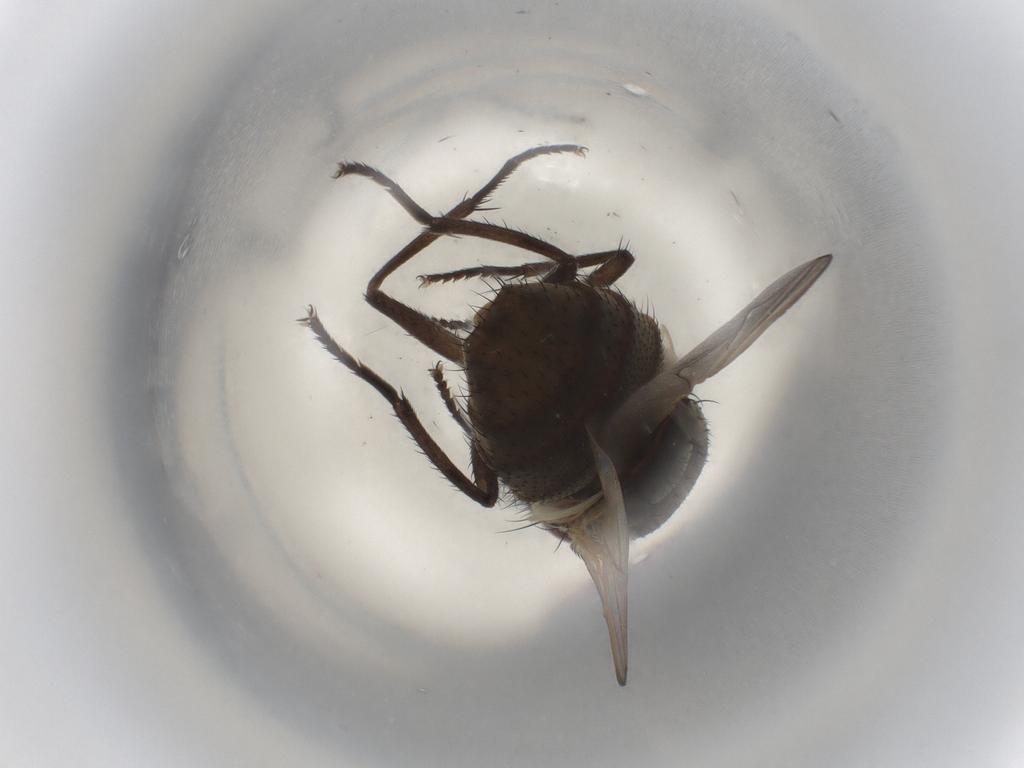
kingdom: Animalia
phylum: Arthropoda
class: Insecta
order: Diptera
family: Muscidae
